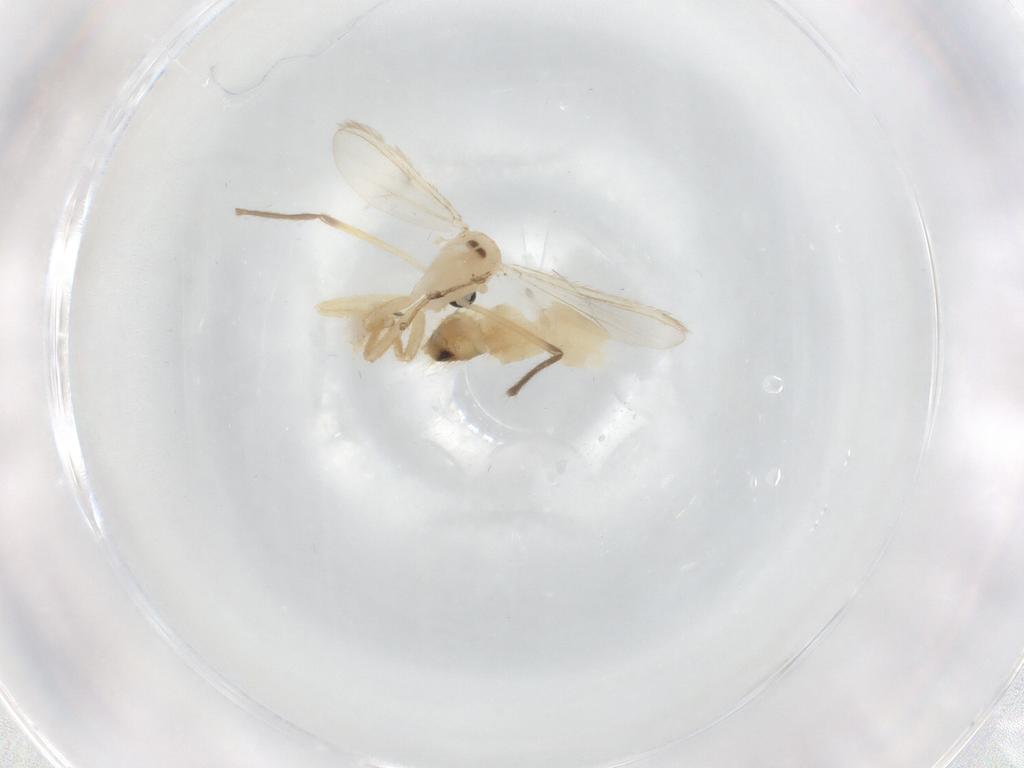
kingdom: Animalia
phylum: Arthropoda
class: Insecta
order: Diptera
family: Chironomidae
